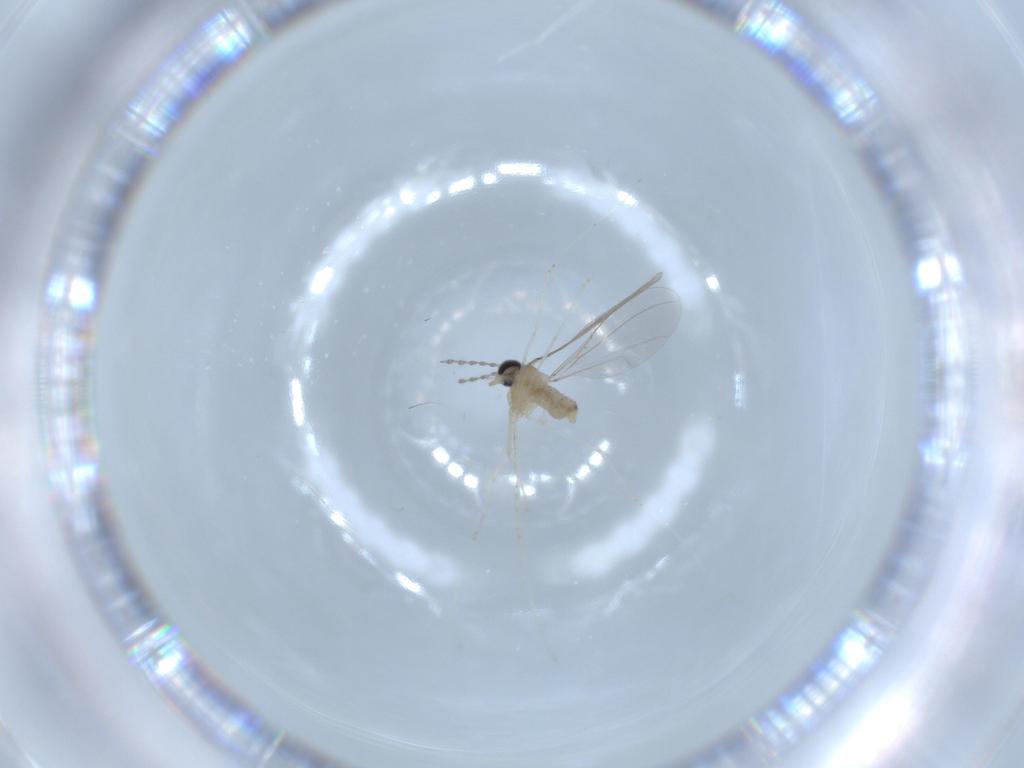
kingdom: Animalia
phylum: Arthropoda
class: Insecta
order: Diptera
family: Cecidomyiidae
